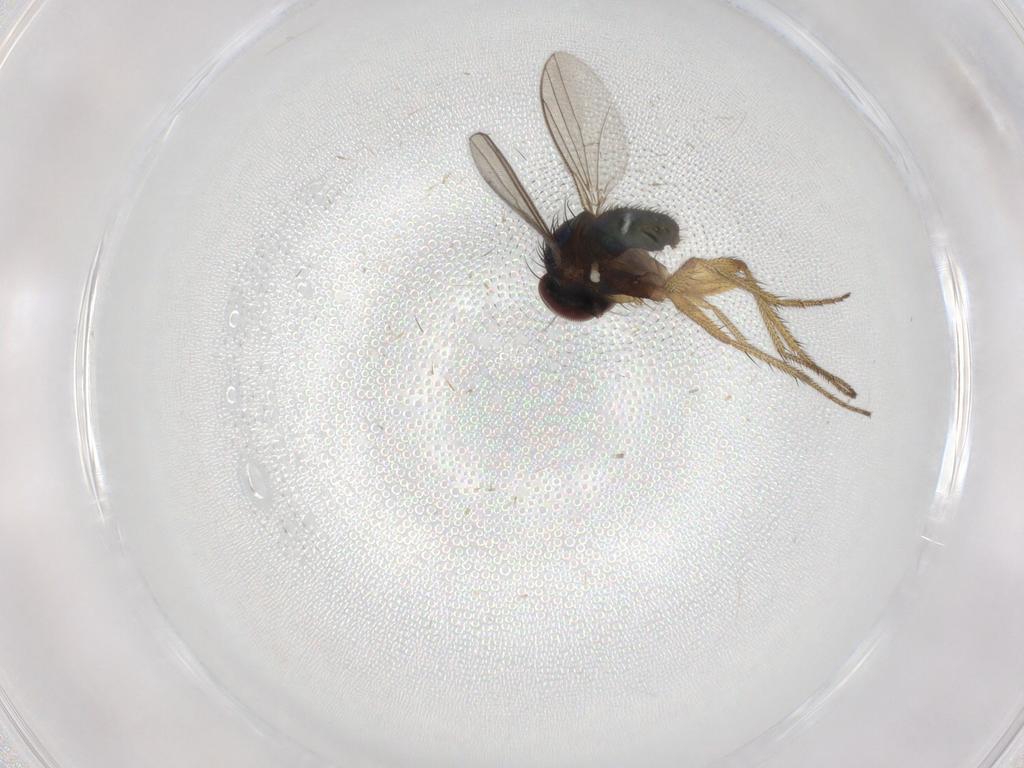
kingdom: Animalia
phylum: Arthropoda
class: Insecta
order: Diptera
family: Dolichopodidae
